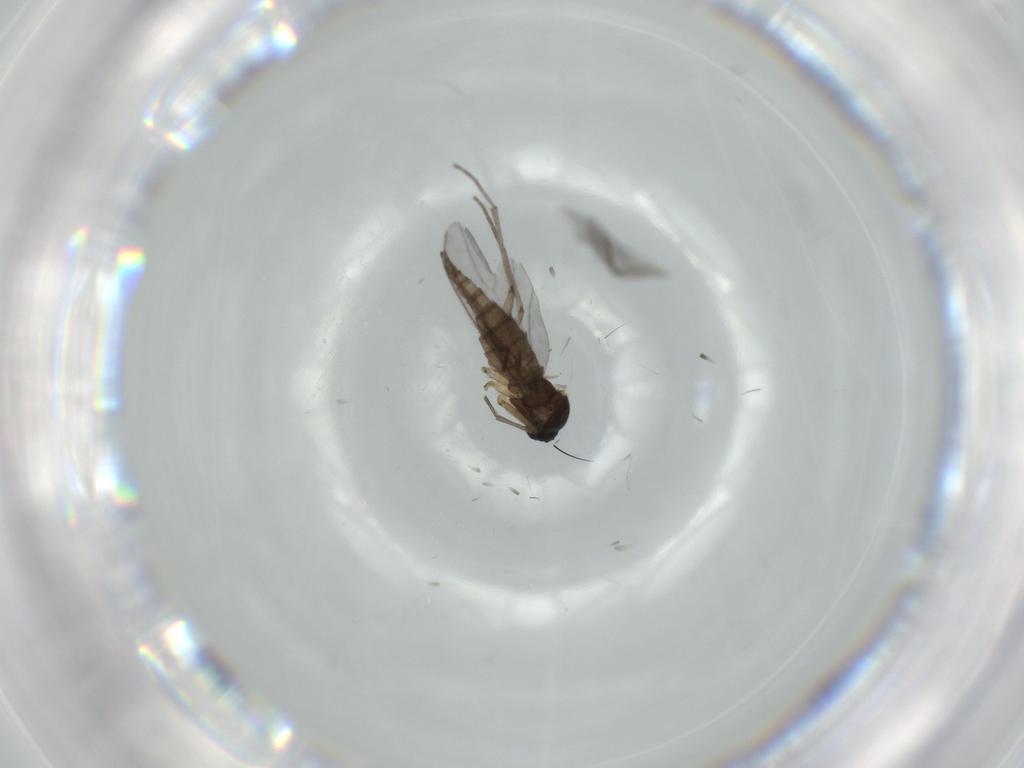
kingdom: Animalia
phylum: Arthropoda
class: Insecta
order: Diptera
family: Sciaridae
